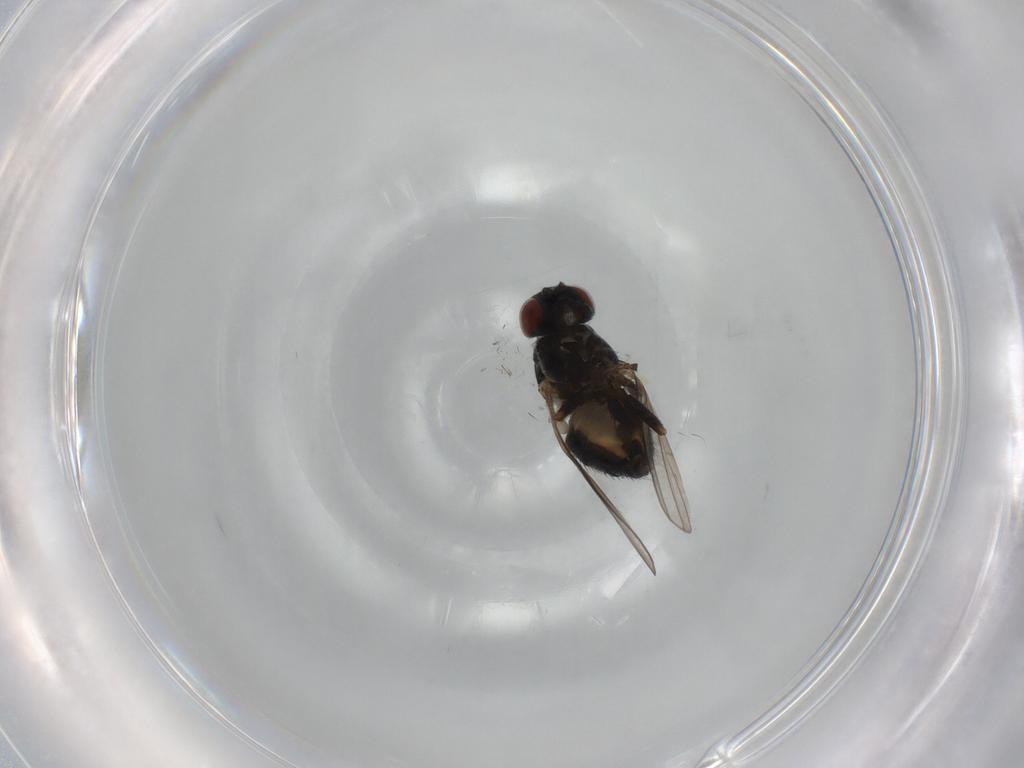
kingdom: Animalia
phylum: Arthropoda
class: Insecta
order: Diptera
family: Chamaemyiidae
